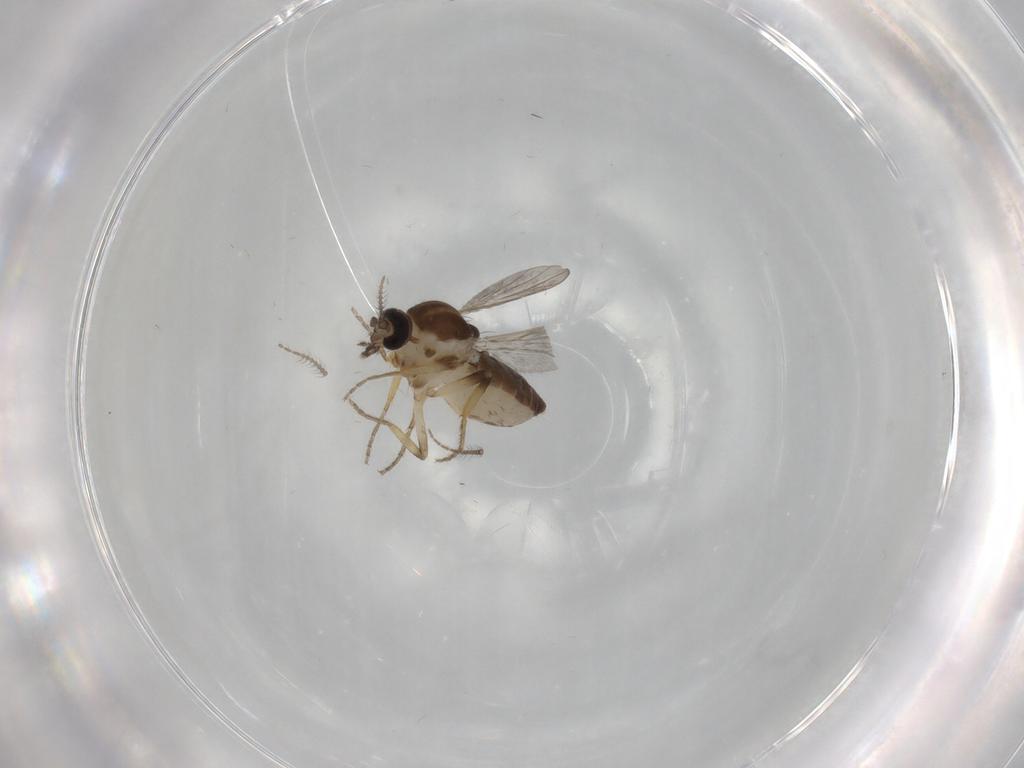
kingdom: Animalia
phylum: Arthropoda
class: Insecta
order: Diptera
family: Ceratopogonidae
